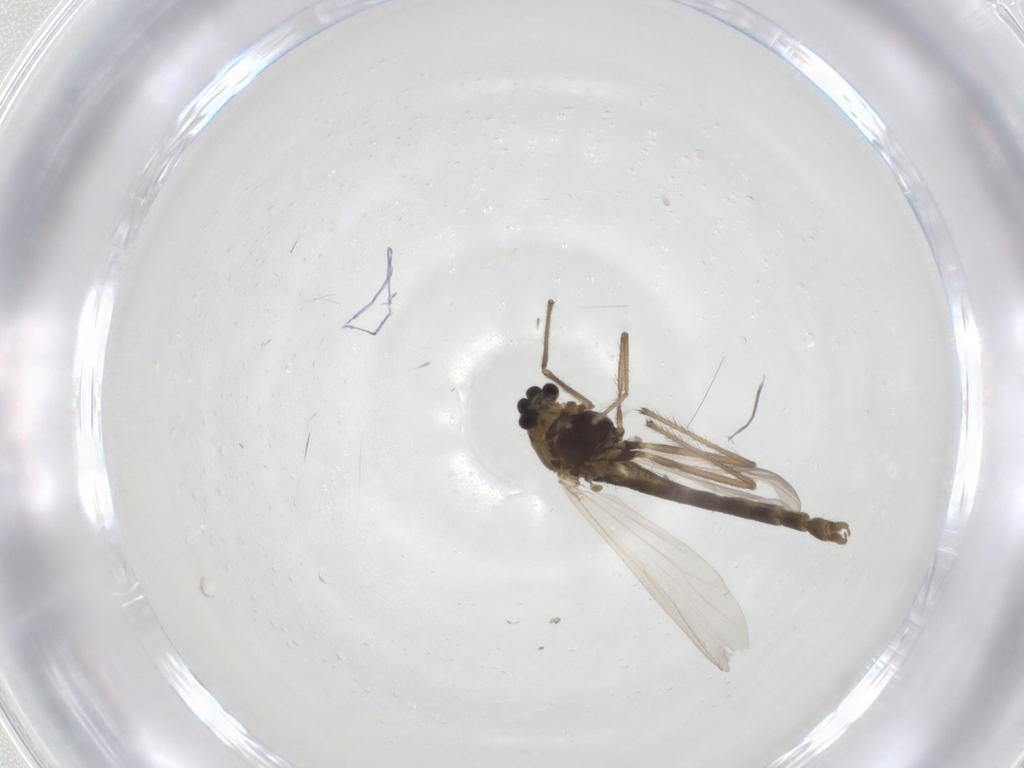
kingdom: Animalia
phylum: Arthropoda
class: Insecta
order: Diptera
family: Chironomidae
